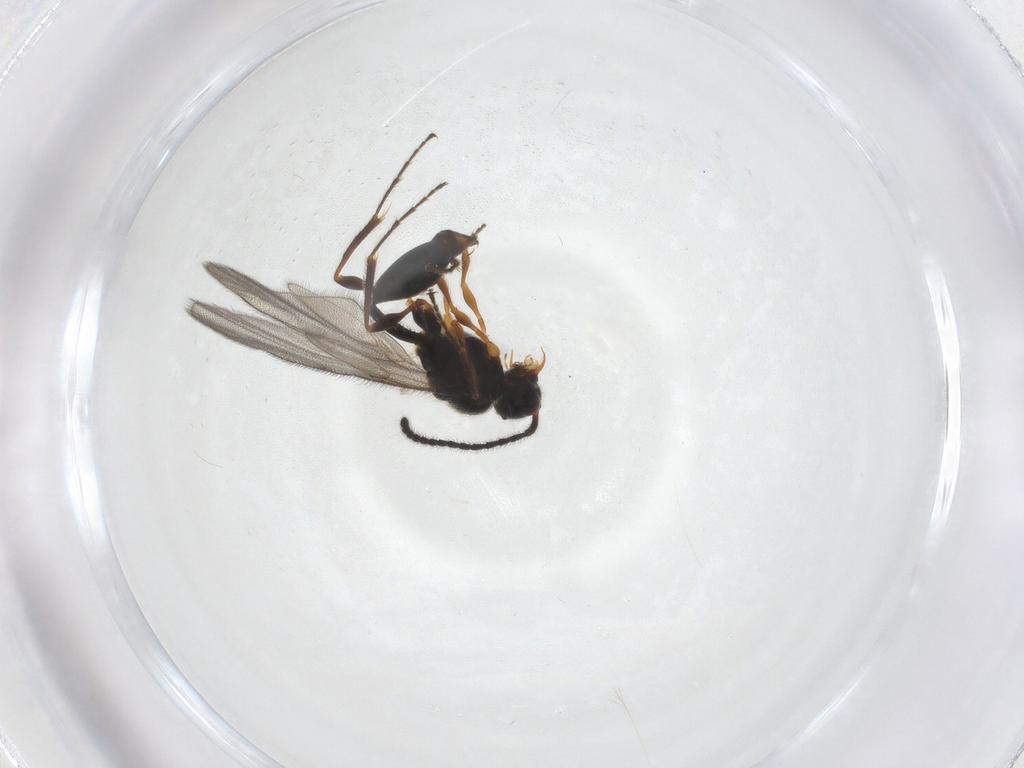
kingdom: Animalia
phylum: Arthropoda
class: Insecta
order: Hymenoptera
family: Diapriidae
